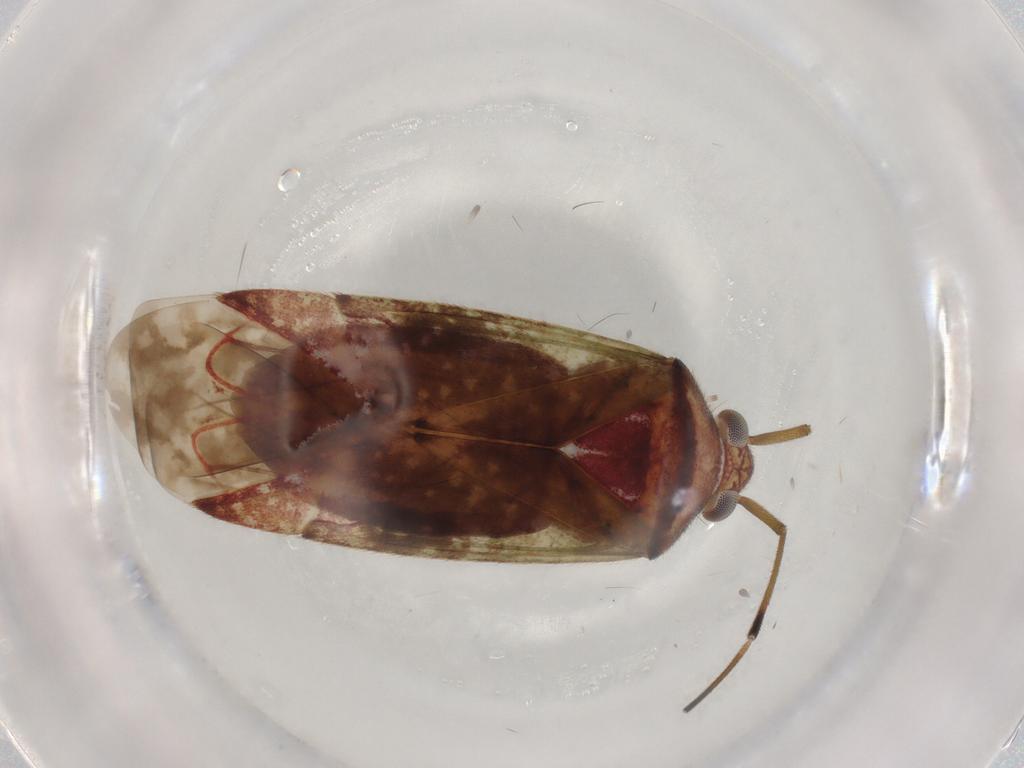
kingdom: Animalia
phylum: Arthropoda
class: Insecta
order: Hemiptera
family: Miridae
